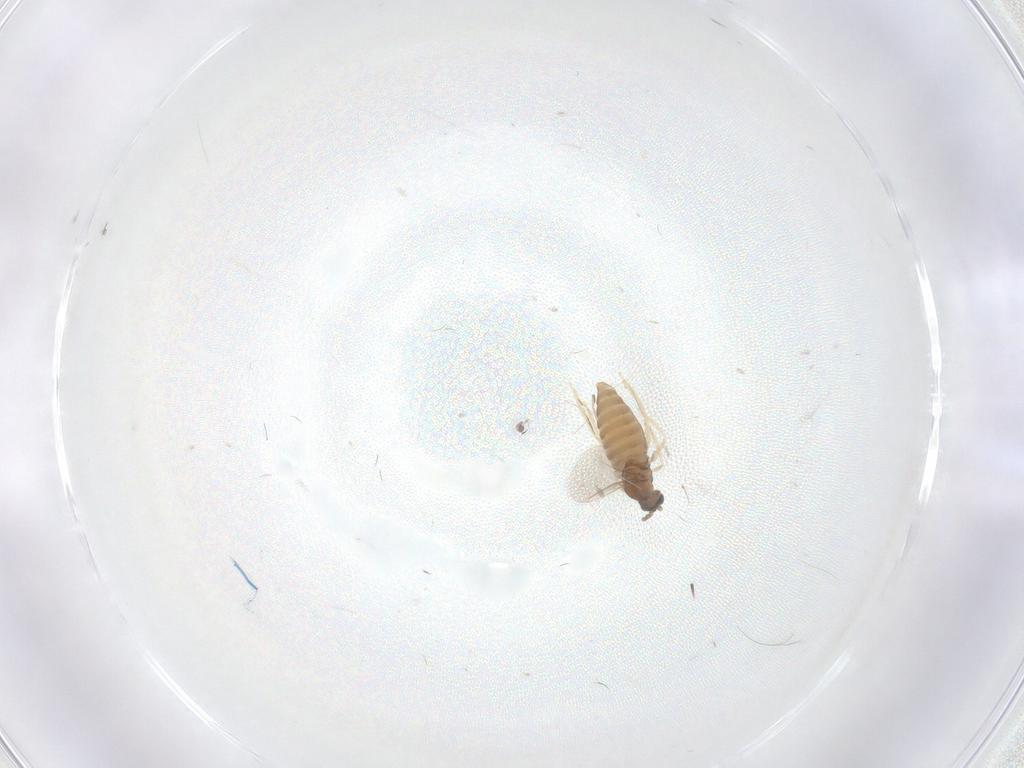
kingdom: Animalia
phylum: Arthropoda
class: Insecta
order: Diptera
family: Cecidomyiidae
